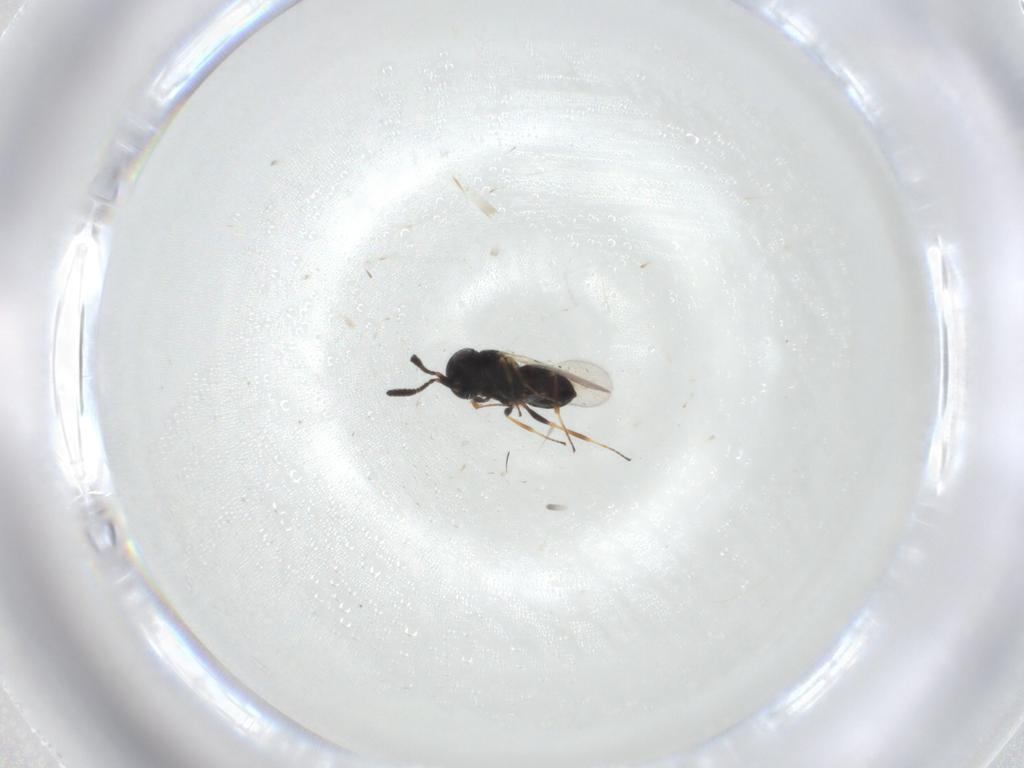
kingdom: Animalia
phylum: Arthropoda
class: Insecta
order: Hymenoptera
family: Scelionidae
